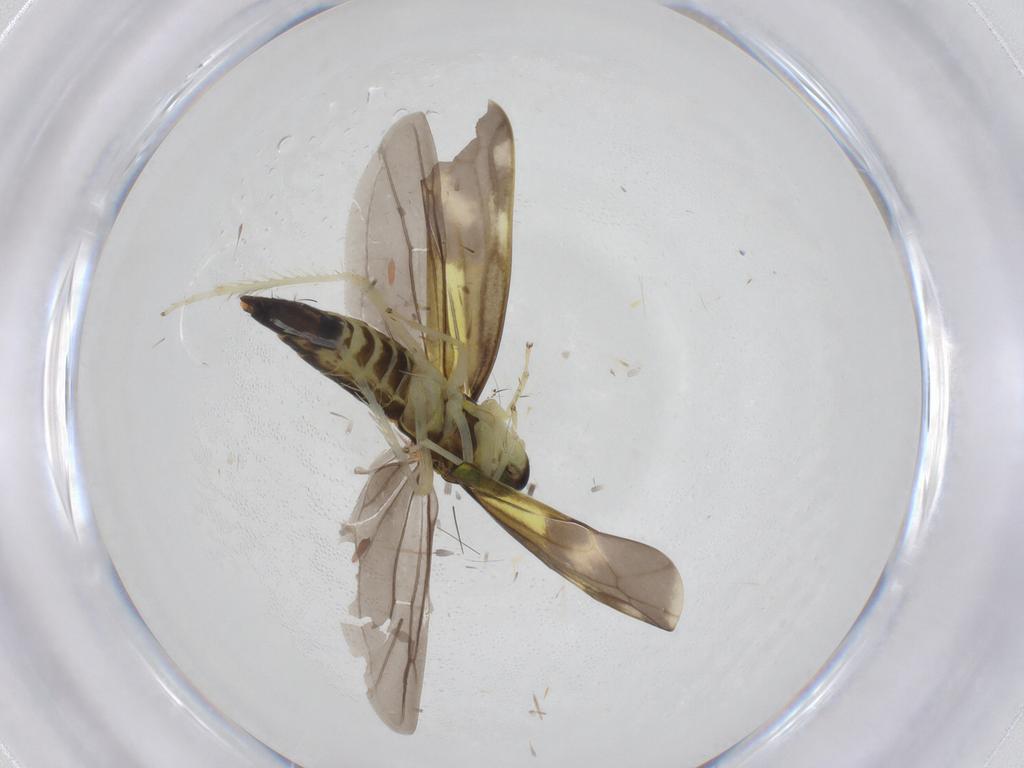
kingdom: Animalia
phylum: Arthropoda
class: Insecta
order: Hemiptera
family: Cicadellidae
